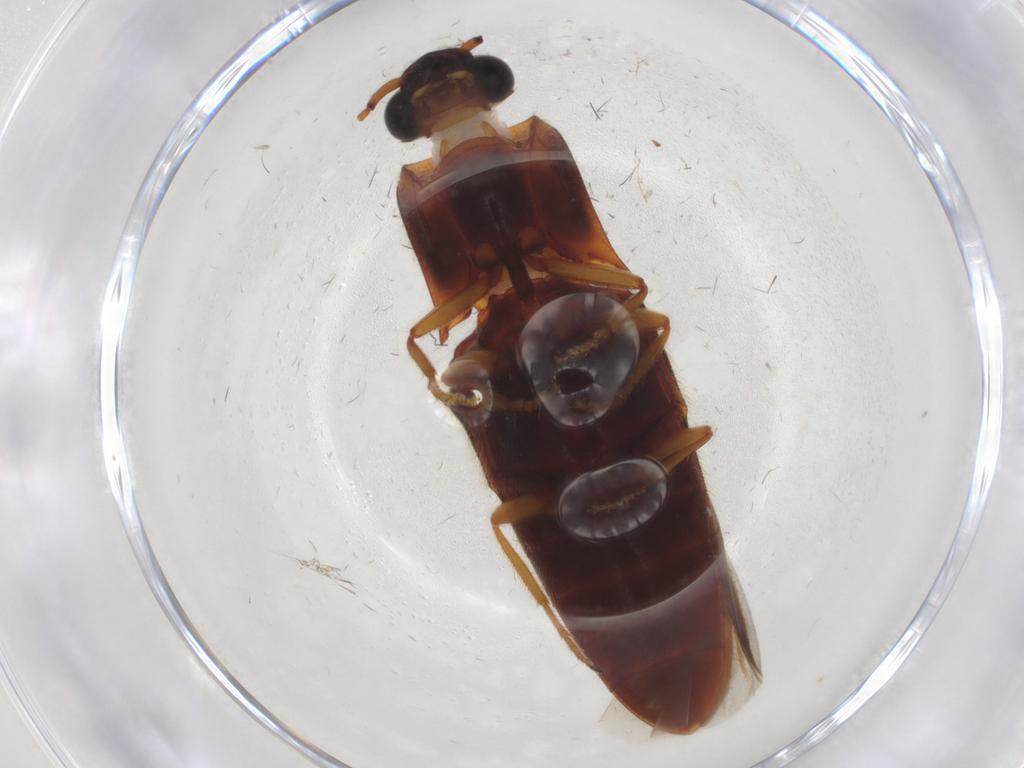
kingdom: Animalia
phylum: Arthropoda
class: Insecta
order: Coleoptera
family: Elateridae
